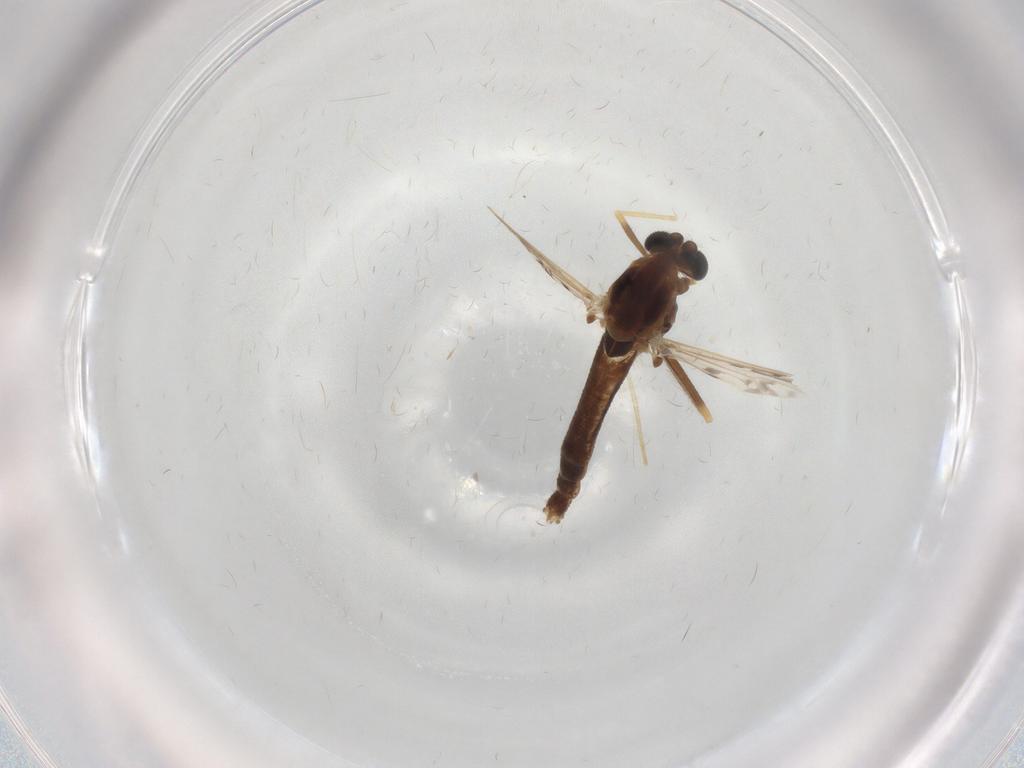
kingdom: Animalia
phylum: Arthropoda
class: Insecta
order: Diptera
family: Chironomidae
